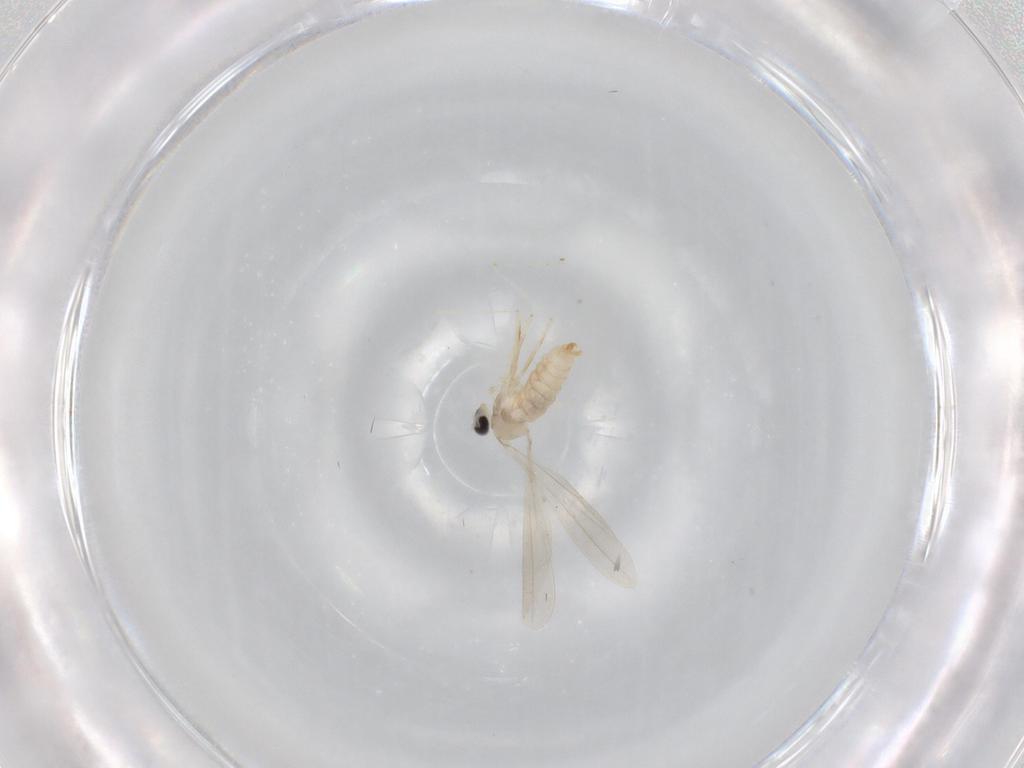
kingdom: Animalia
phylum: Arthropoda
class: Insecta
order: Diptera
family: Cecidomyiidae
